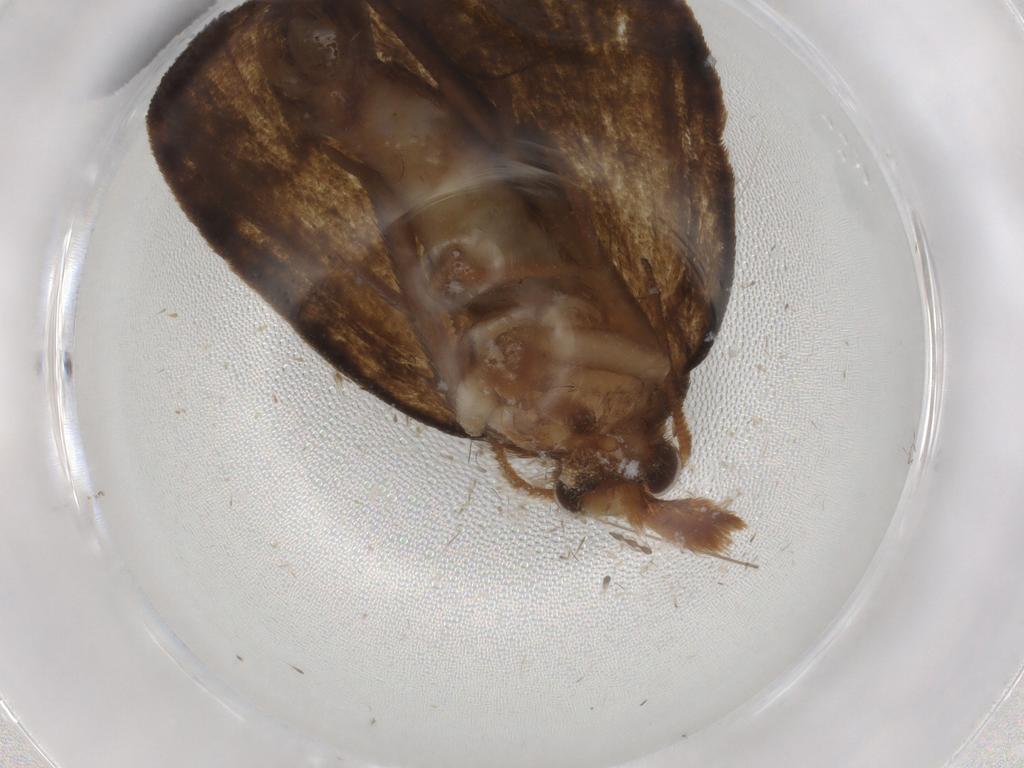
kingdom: Animalia
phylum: Arthropoda
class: Insecta
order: Lepidoptera
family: Geometridae
